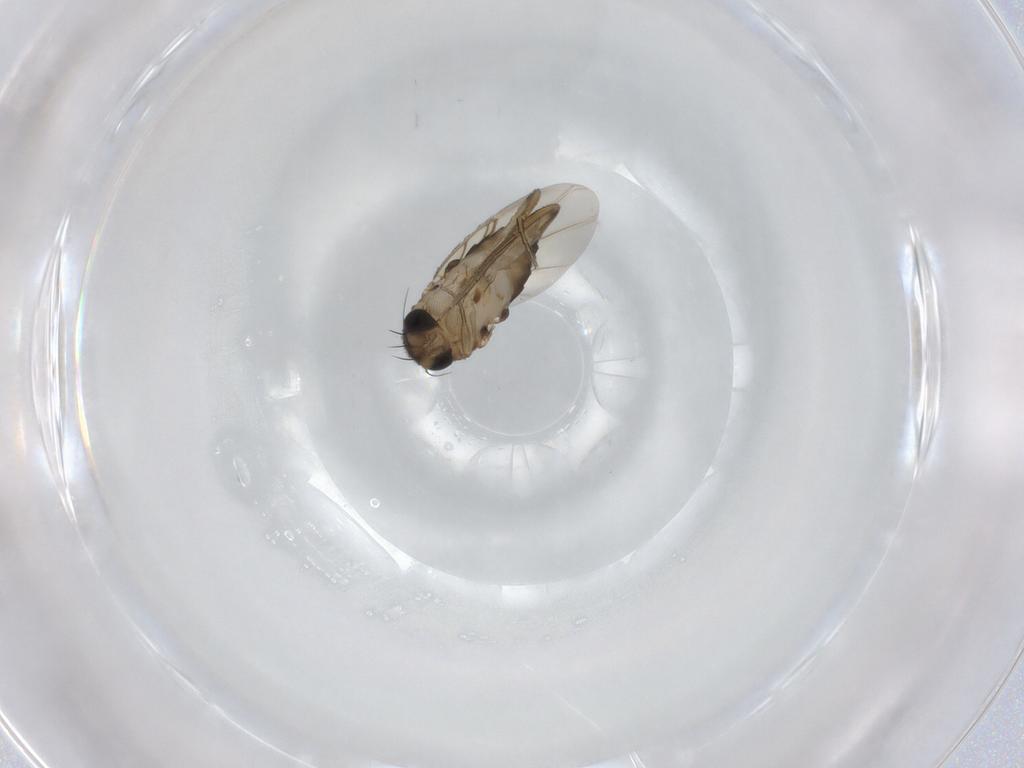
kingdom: Animalia
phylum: Arthropoda
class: Insecta
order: Diptera
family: Phoridae
